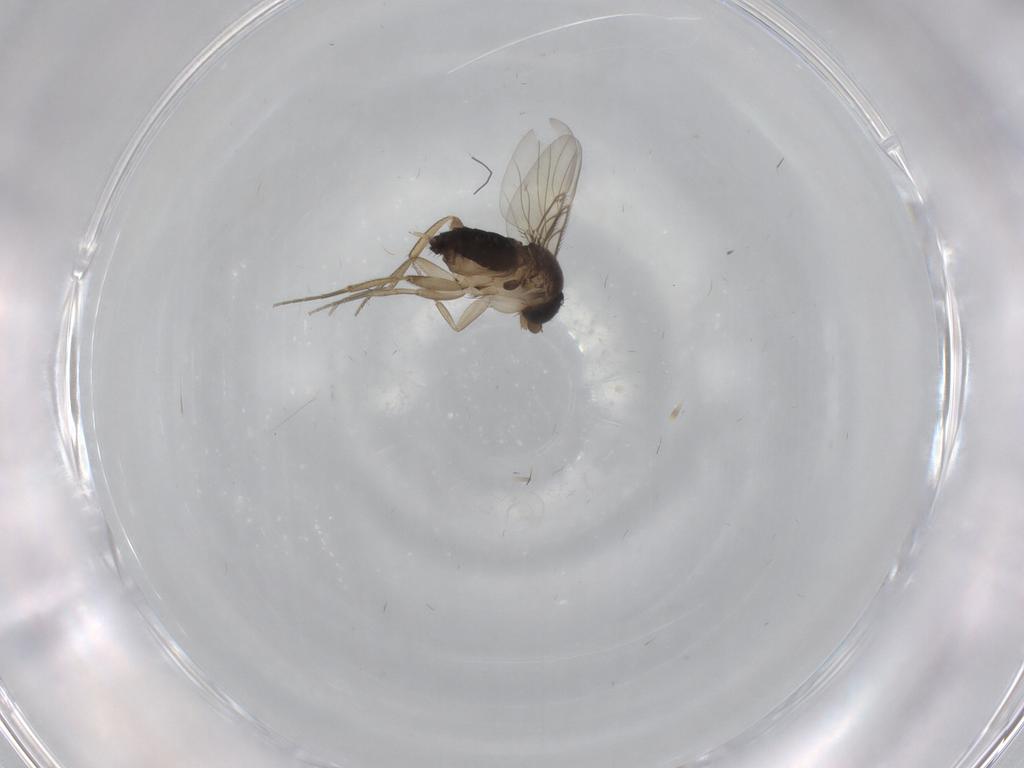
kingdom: Animalia
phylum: Arthropoda
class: Insecta
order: Diptera
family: Phoridae
